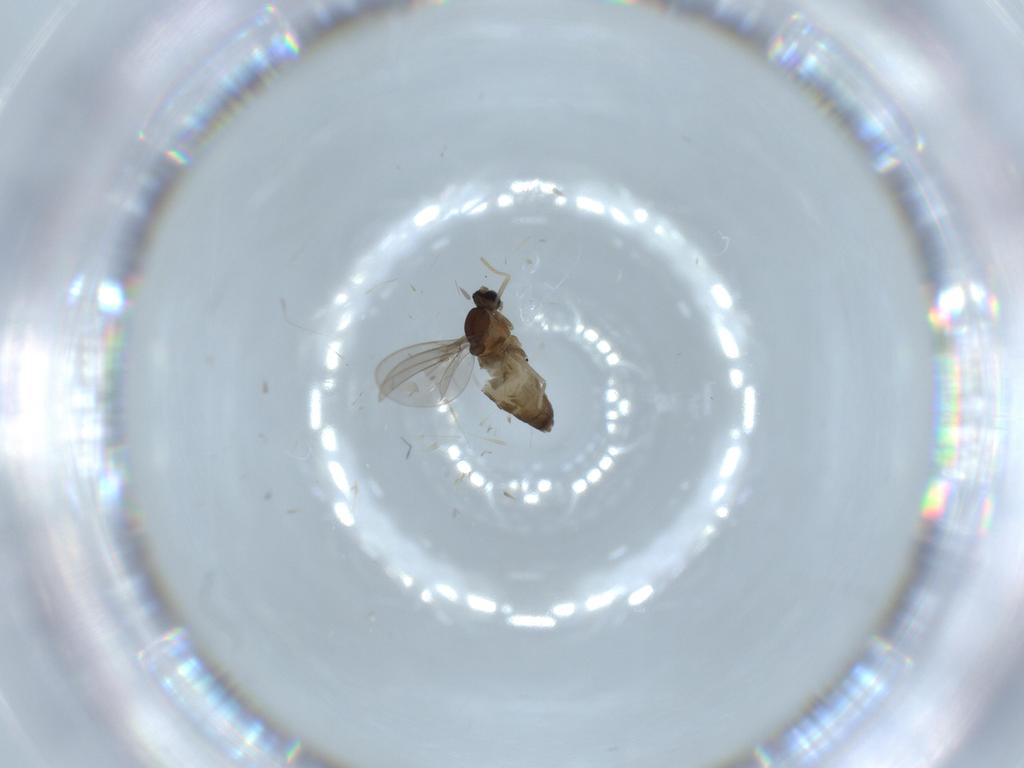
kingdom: Animalia
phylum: Arthropoda
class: Insecta
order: Diptera
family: Cecidomyiidae
